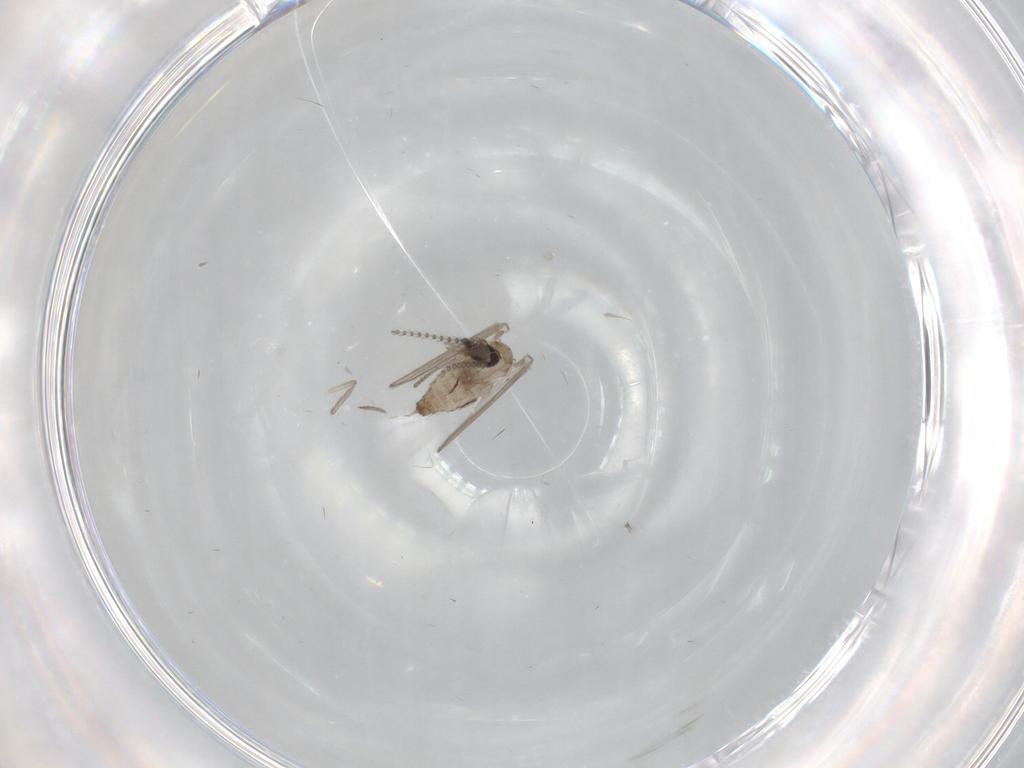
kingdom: Animalia
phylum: Arthropoda
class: Insecta
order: Diptera
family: Psychodidae
